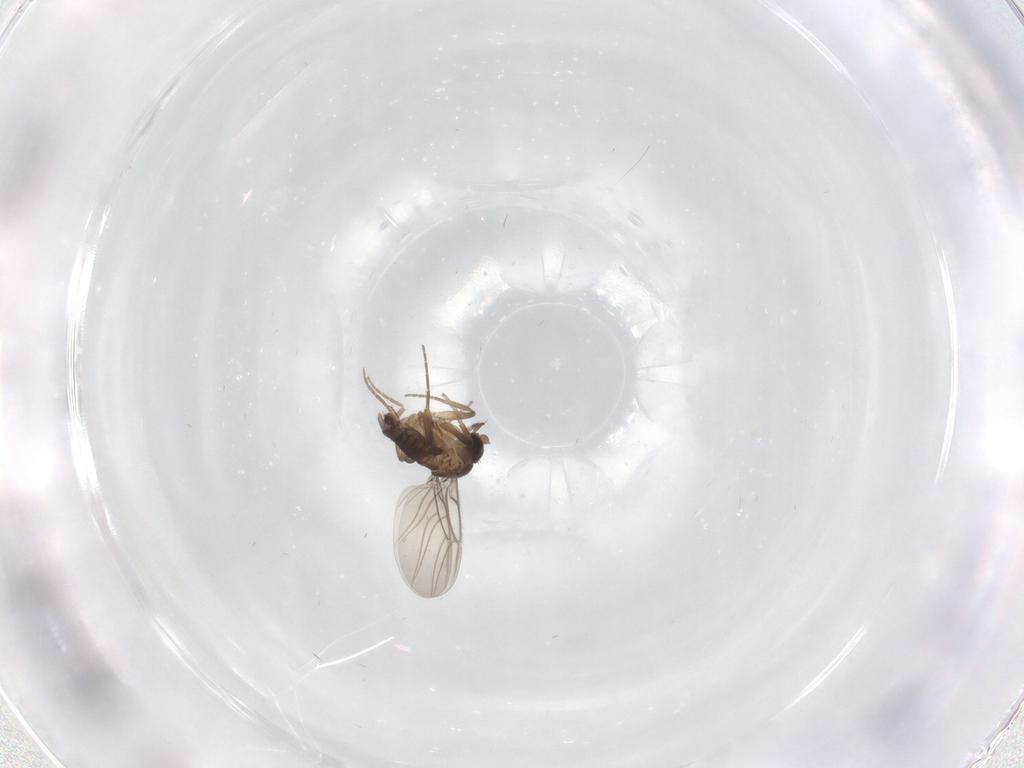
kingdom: Animalia
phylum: Arthropoda
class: Insecta
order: Diptera
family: Phoridae
